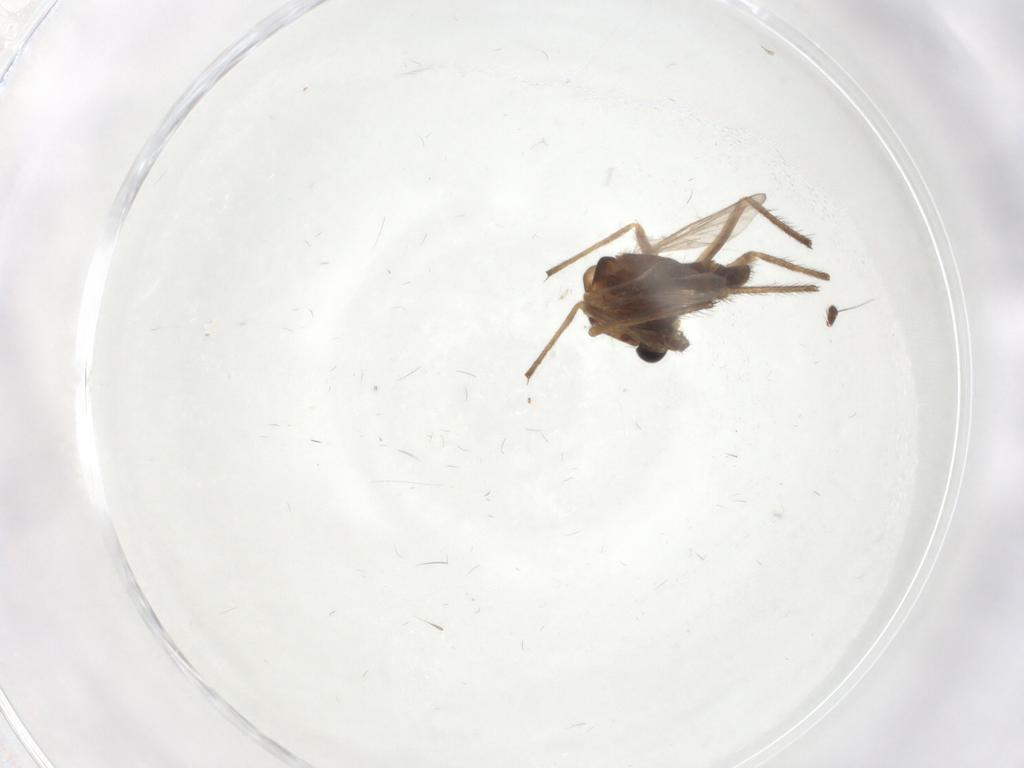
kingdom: Animalia
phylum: Arthropoda
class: Insecta
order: Diptera
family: Chironomidae
